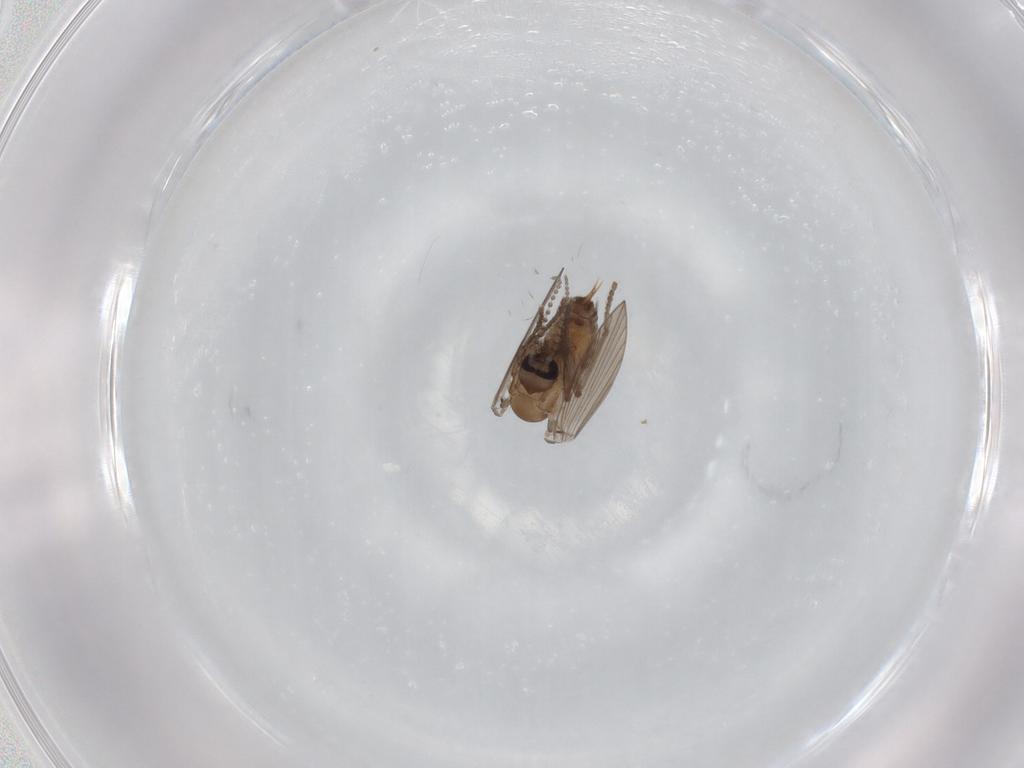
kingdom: Animalia
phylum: Arthropoda
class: Insecta
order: Diptera
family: Psychodidae
